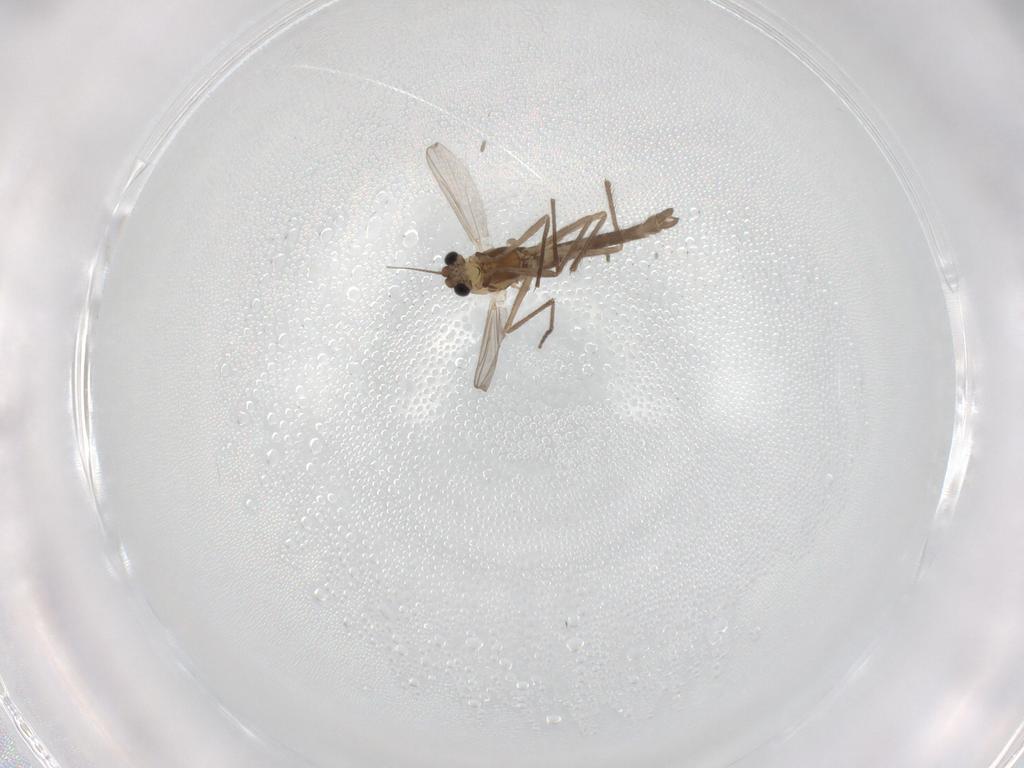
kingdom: Animalia
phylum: Arthropoda
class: Insecta
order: Diptera
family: Chironomidae
